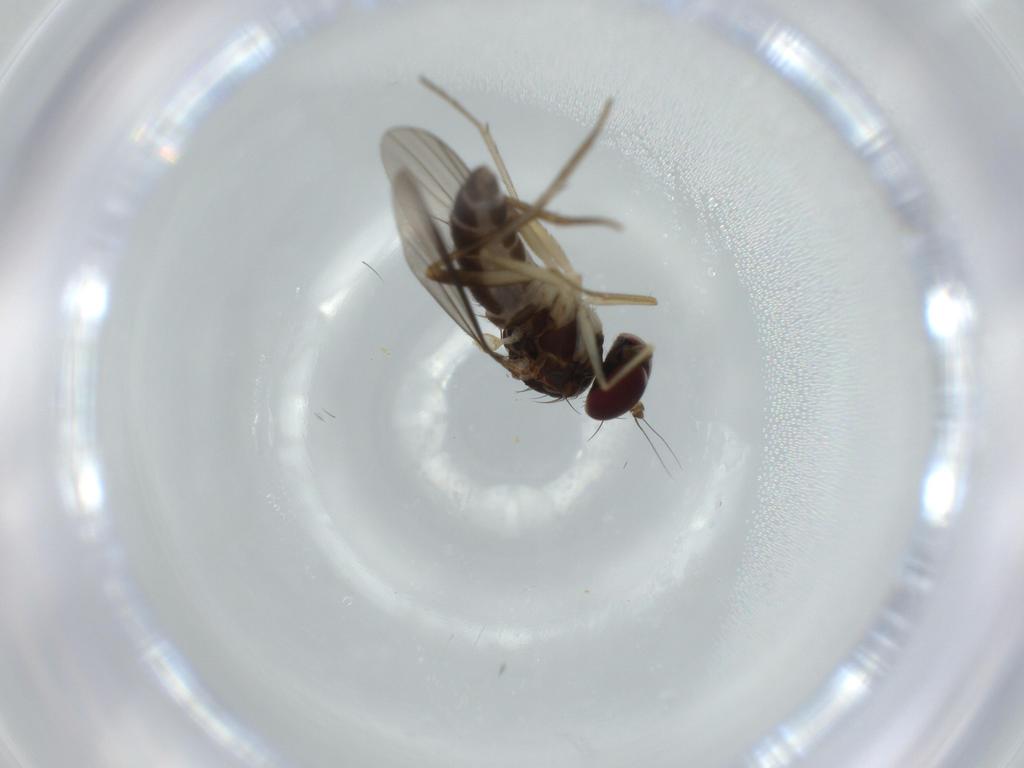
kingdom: Animalia
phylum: Arthropoda
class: Insecta
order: Diptera
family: Dolichopodidae
